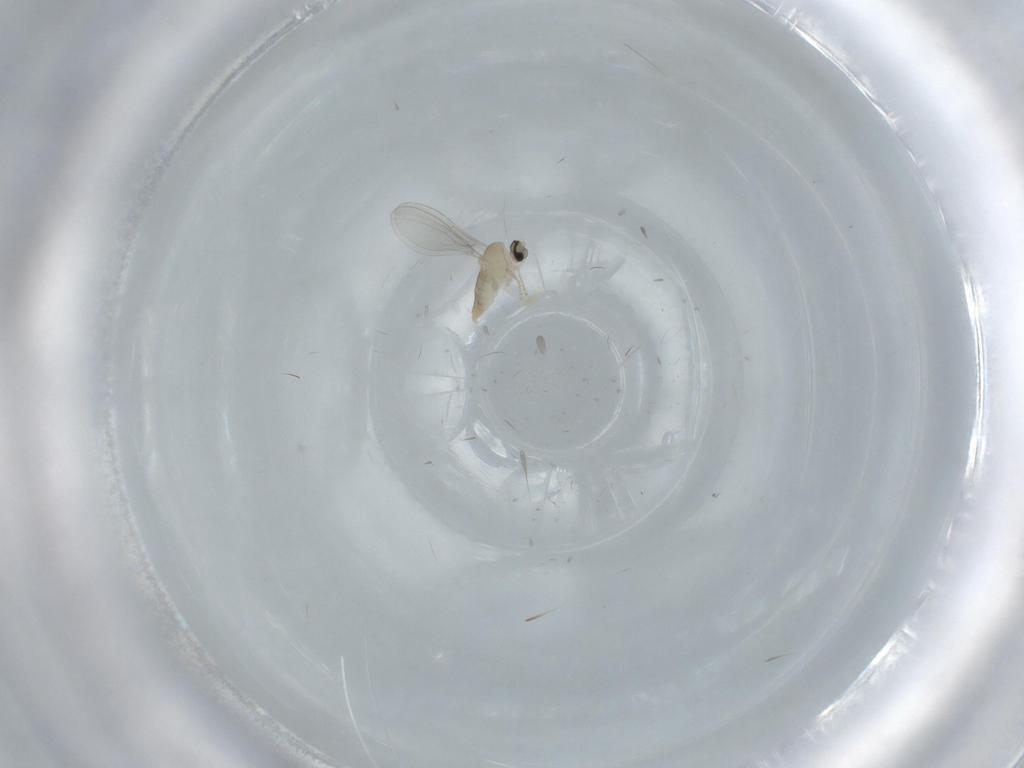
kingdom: Animalia
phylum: Arthropoda
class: Insecta
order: Diptera
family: Cecidomyiidae
